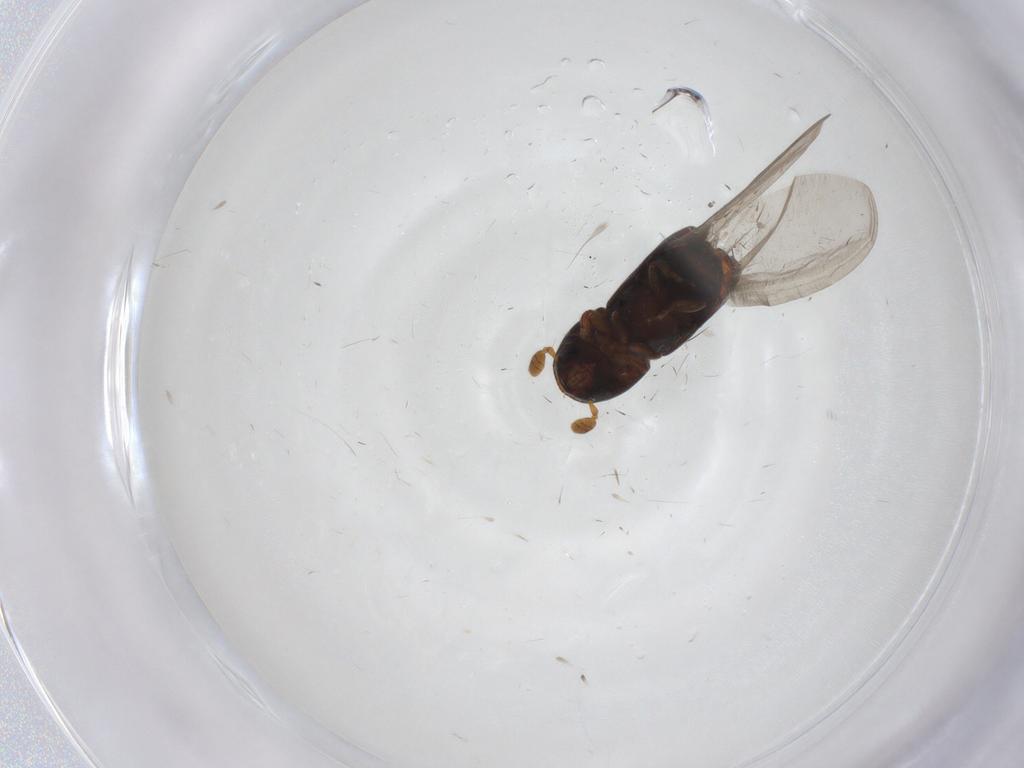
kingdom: Animalia
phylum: Arthropoda
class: Insecta
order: Coleoptera
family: Curculionidae
